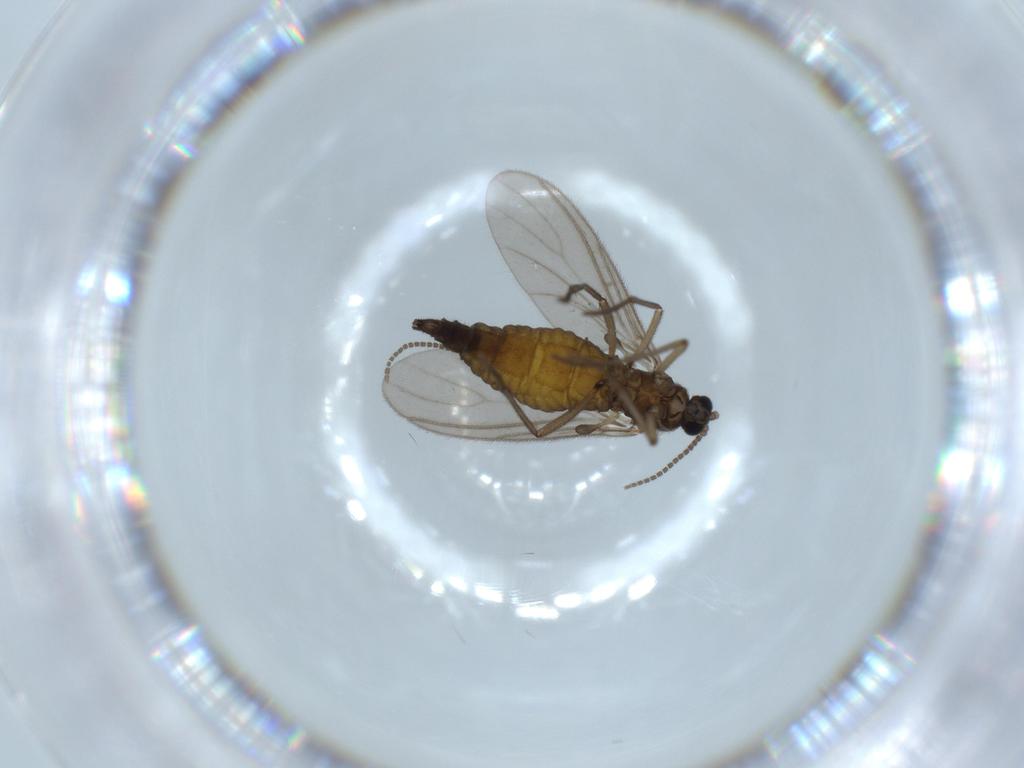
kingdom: Animalia
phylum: Arthropoda
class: Insecta
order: Diptera
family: Sciaridae
